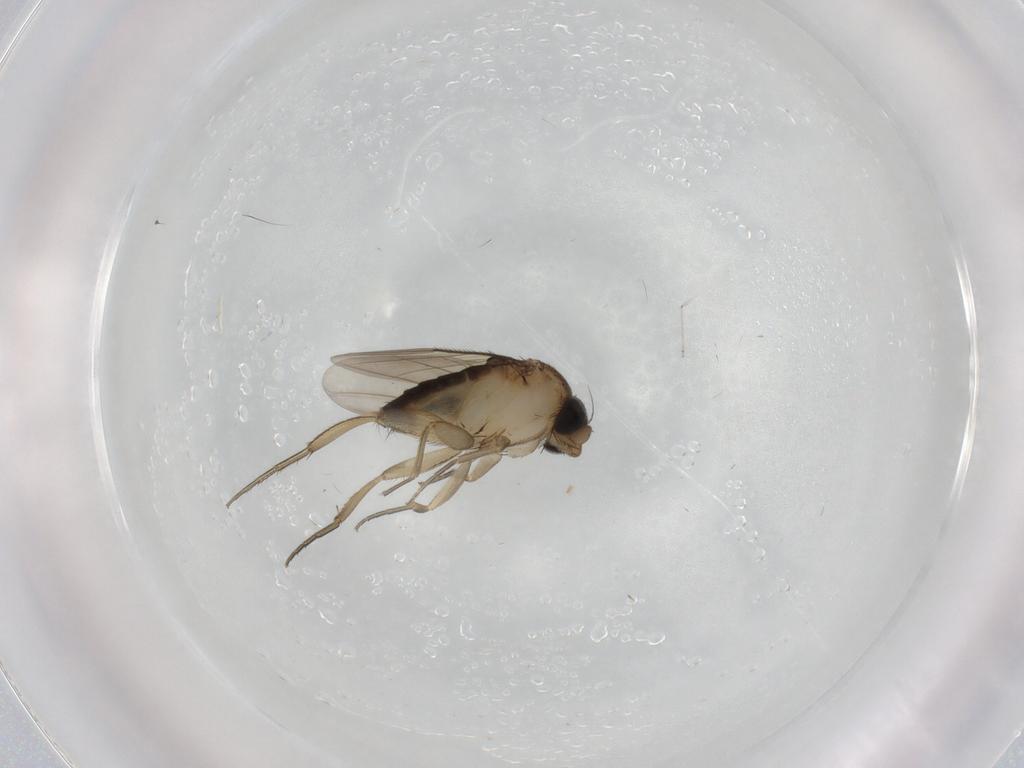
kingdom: Animalia
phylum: Arthropoda
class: Insecta
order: Diptera
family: Phoridae
